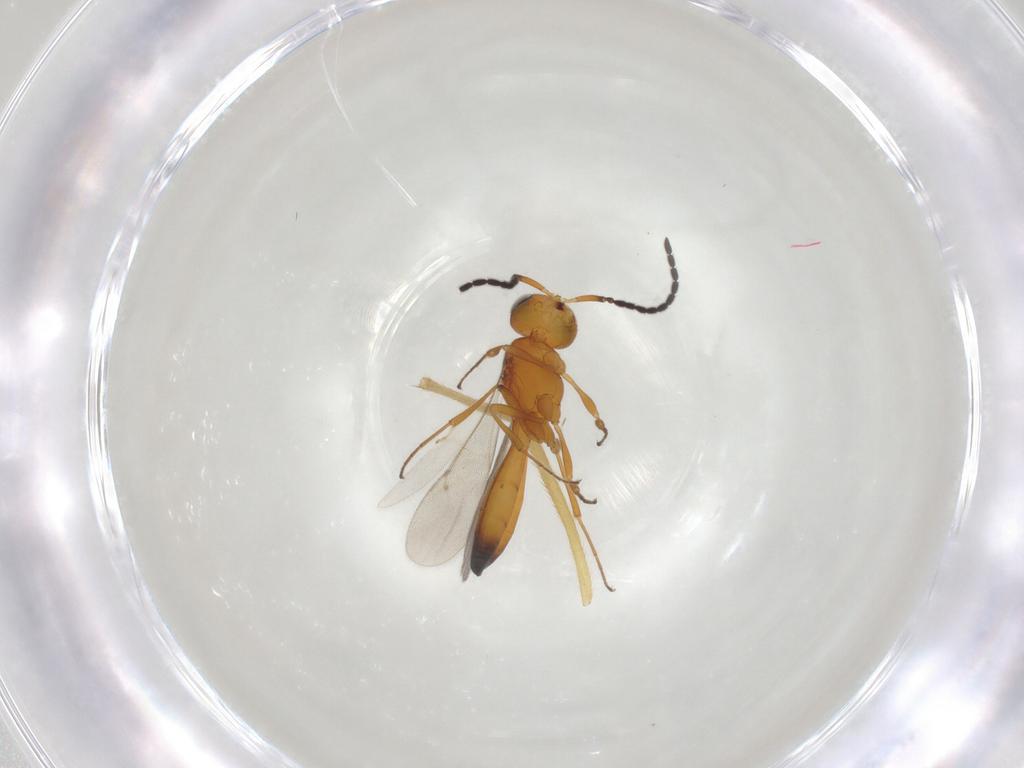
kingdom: Animalia
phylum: Arthropoda
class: Insecta
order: Hymenoptera
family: Scelionidae
